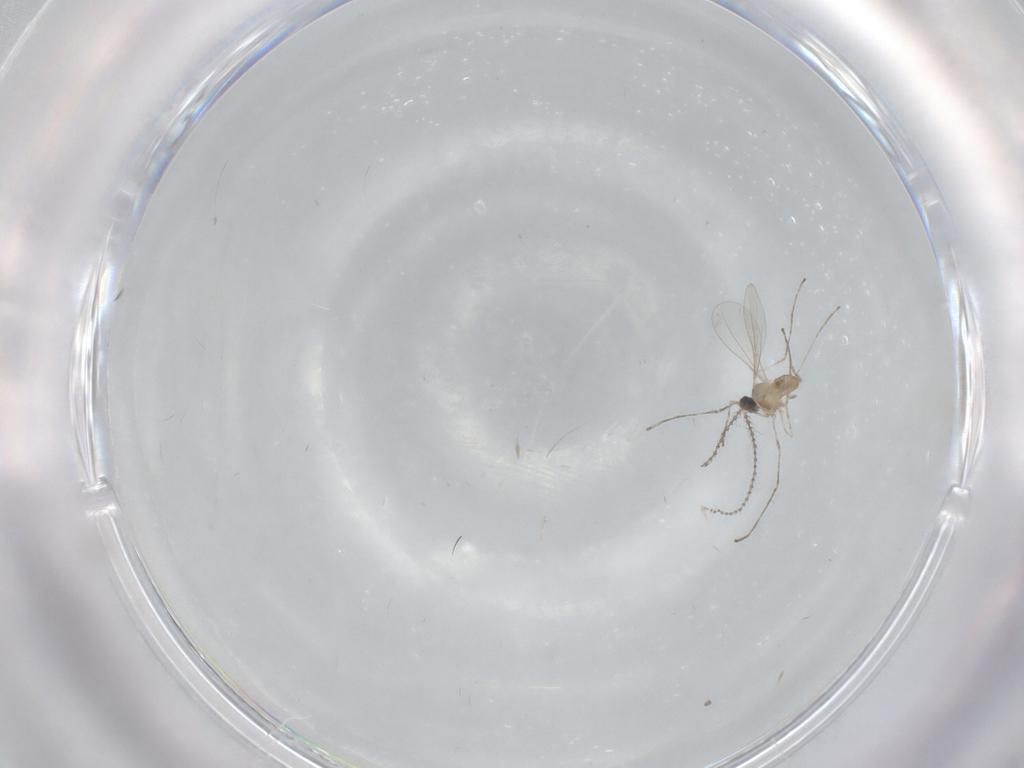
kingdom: Animalia
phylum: Arthropoda
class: Insecta
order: Diptera
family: Cecidomyiidae
